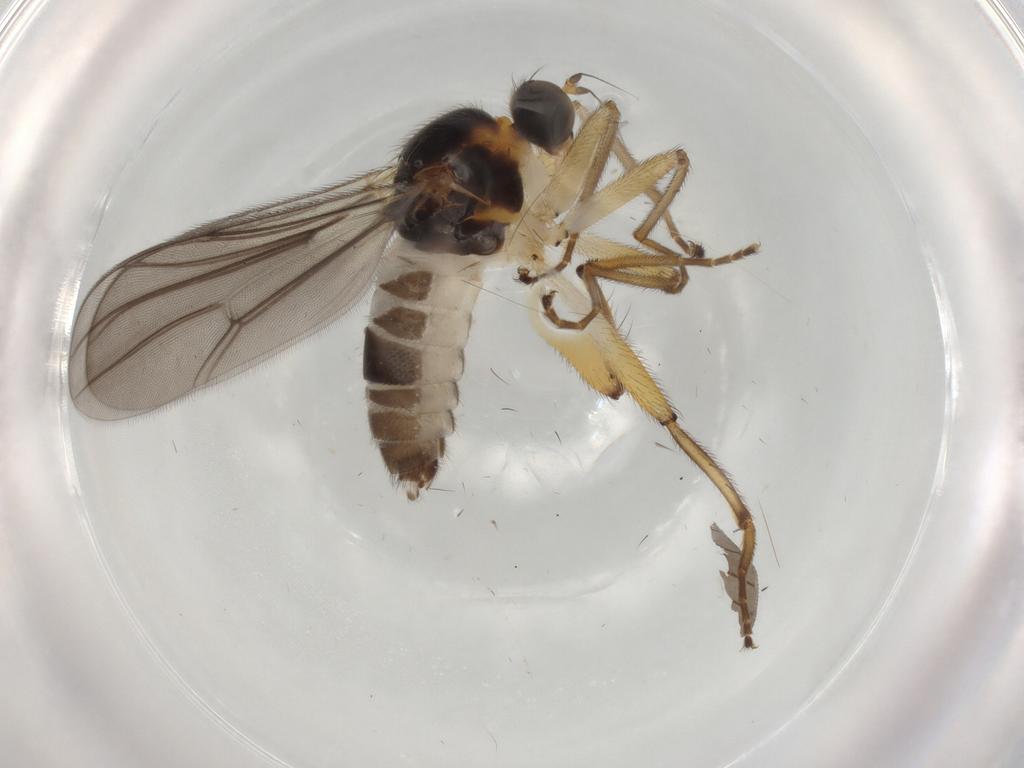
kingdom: Animalia
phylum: Arthropoda
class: Insecta
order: Diptera
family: Hybotidae
